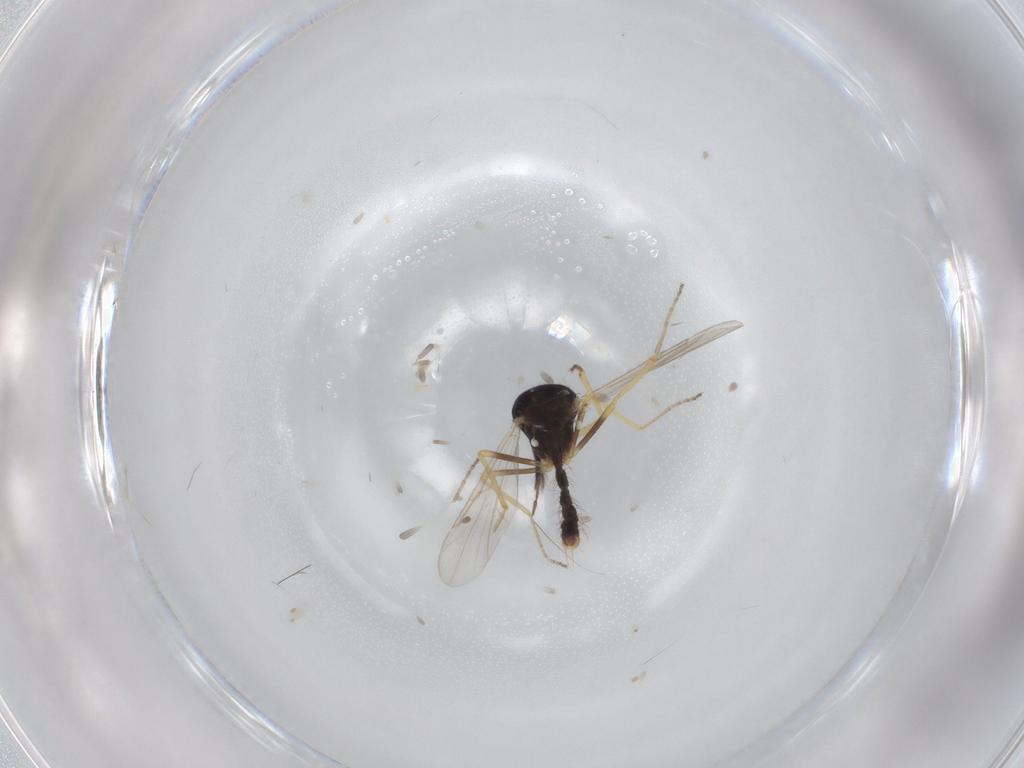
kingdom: Animalia
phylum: Arthropoda
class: Insecta
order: Diptera
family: Ceratopogonidae
